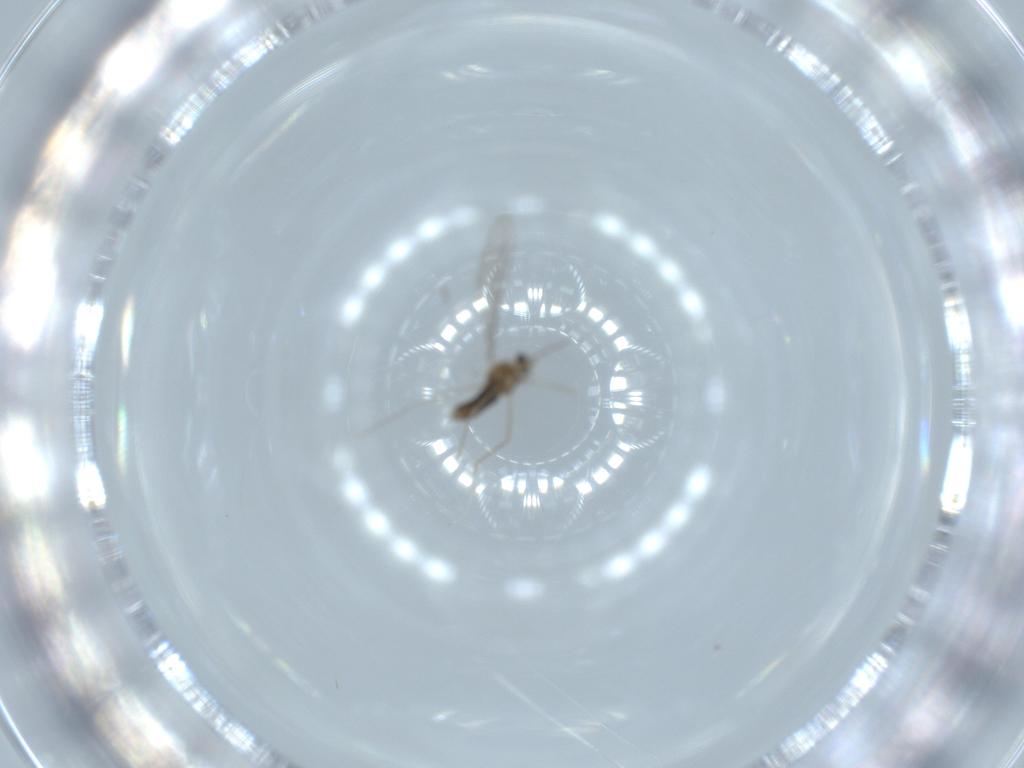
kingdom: Animalia
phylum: Arthropoda
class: Insecta
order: Diptera
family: Cecidomyiidae
